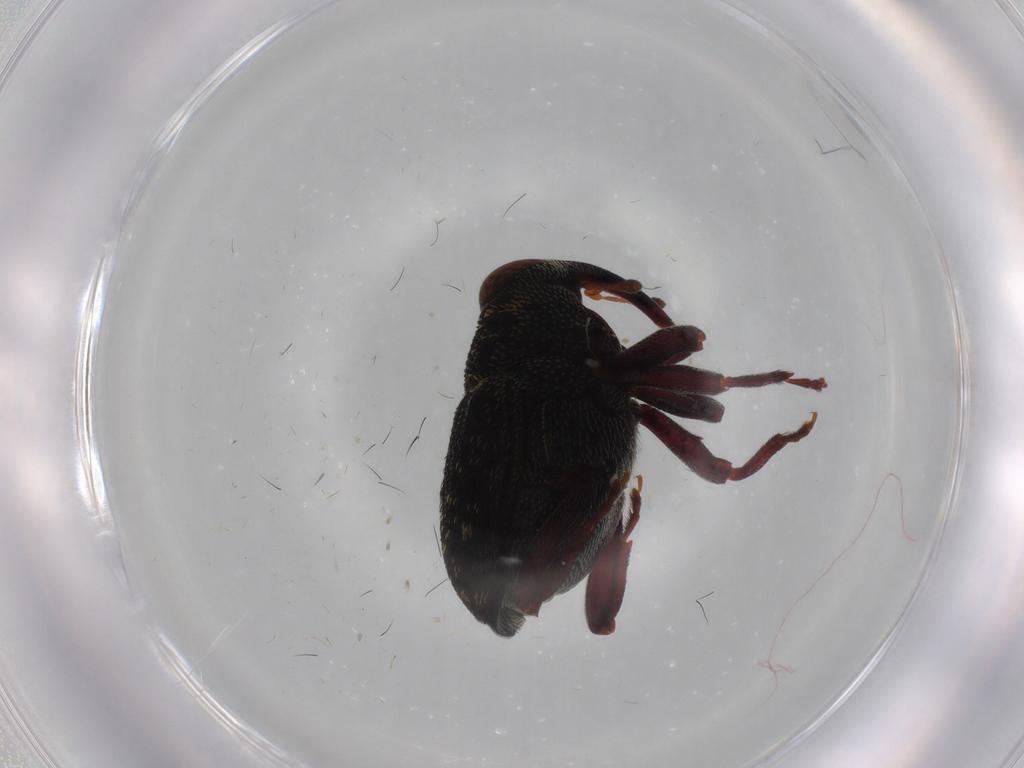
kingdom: Animalia
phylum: Arthropoda
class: Insecta
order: Coleoptera
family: Curculionidae
